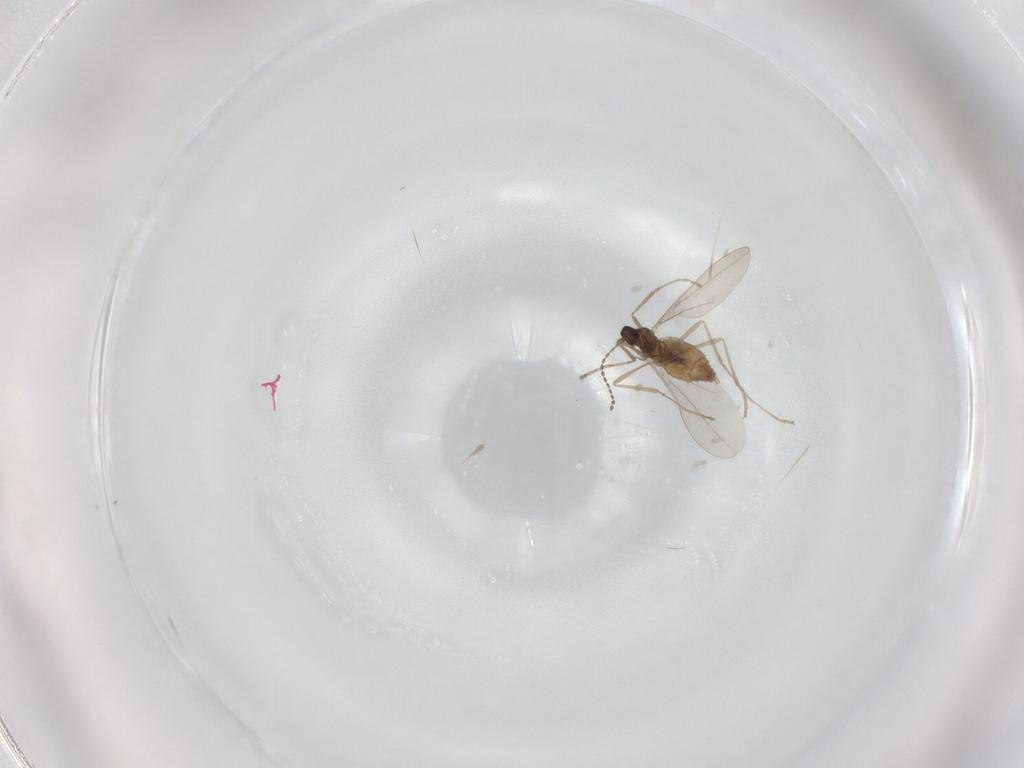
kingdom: Animalia
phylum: Arthropoda
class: Insecta
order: Diptera
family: Cecidomyiidae
